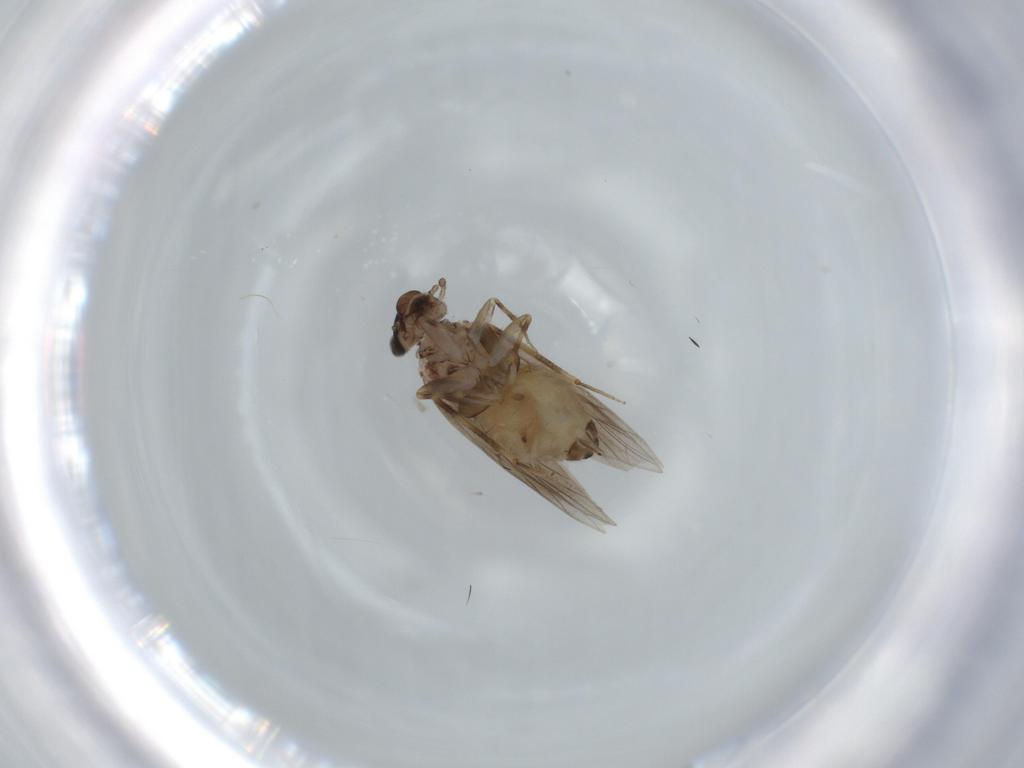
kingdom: Animalia
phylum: Arthropoda
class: Insecta
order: Psocodea
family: Lepidopsocidae
